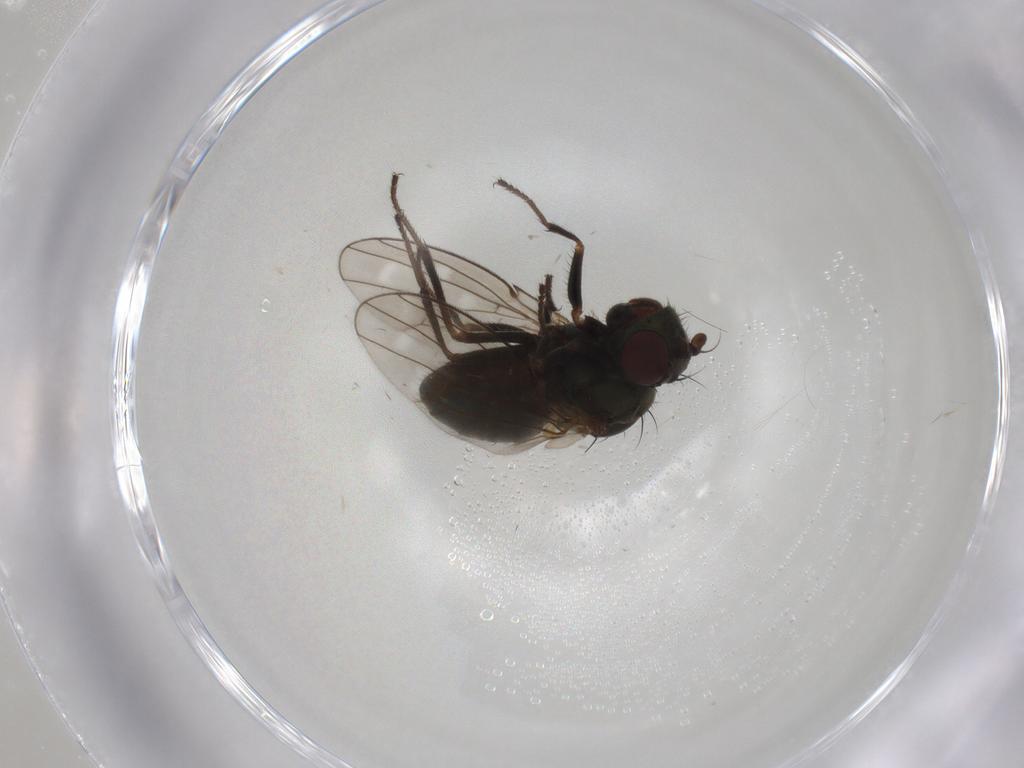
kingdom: Animalia
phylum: Arthropoda
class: Insecta
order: Diptera
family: Ephydridae
